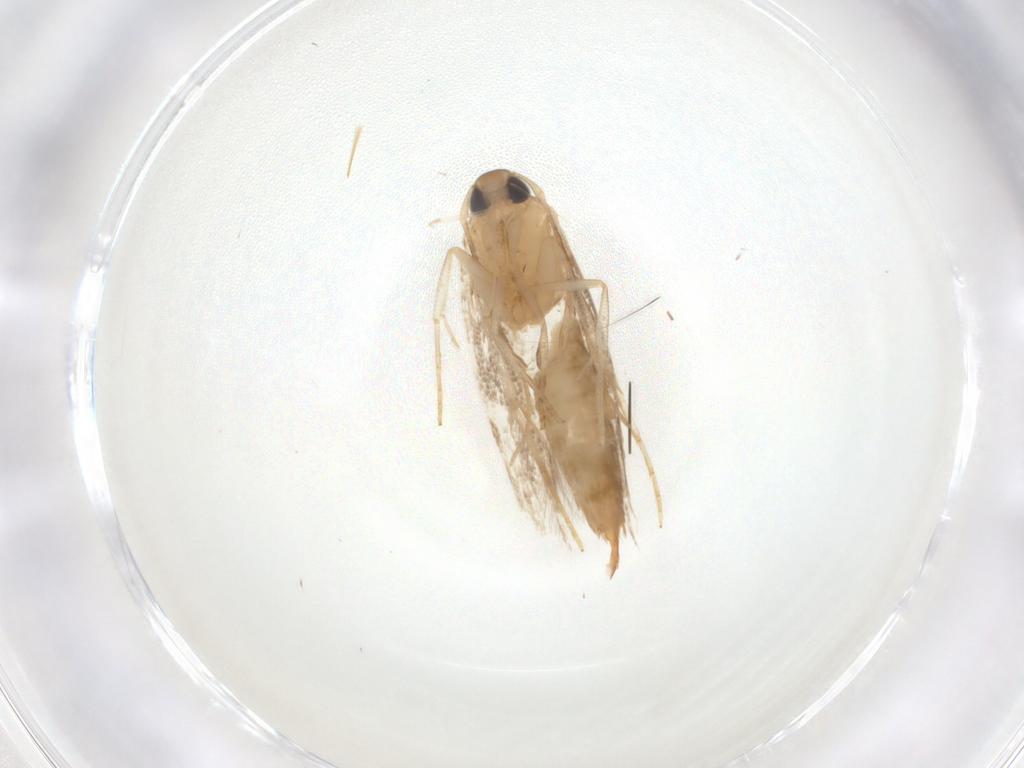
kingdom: Animalia
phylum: Arthropoda
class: Insecta
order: Lepidoptera
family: Cosmopterigidae
